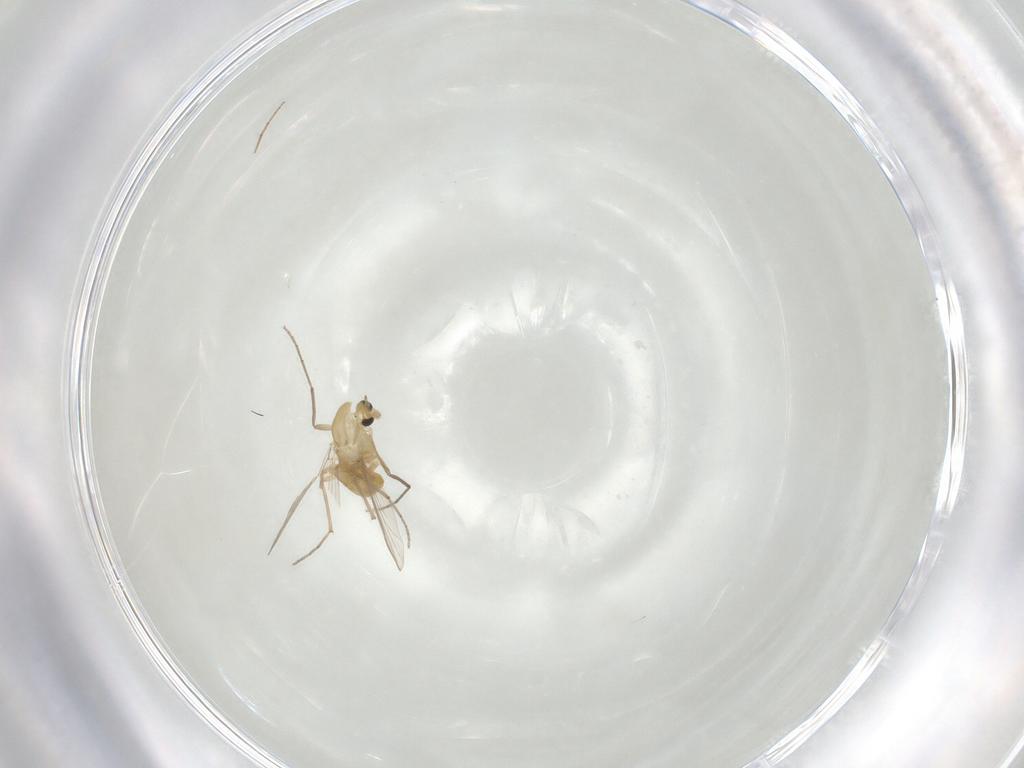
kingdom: Animalia
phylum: Arthropoda
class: Insecta
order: Diptera
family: Chironomidae
